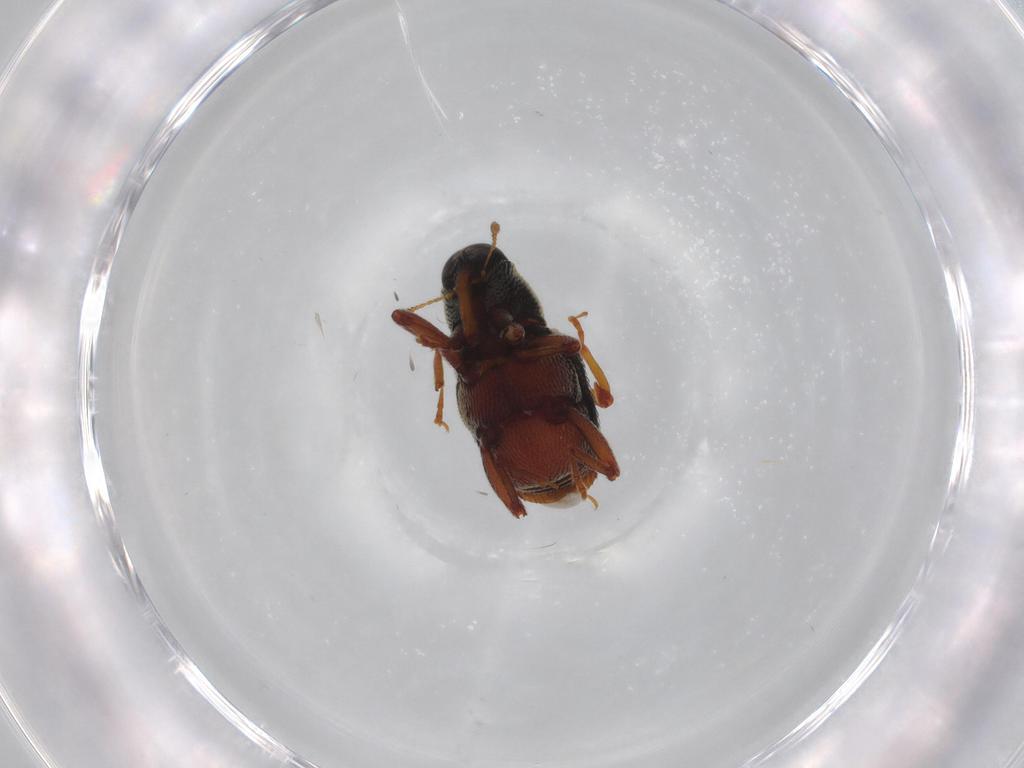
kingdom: Animalia
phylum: Arthropoda
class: Insecta
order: Coleoptera
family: Curculionidae
